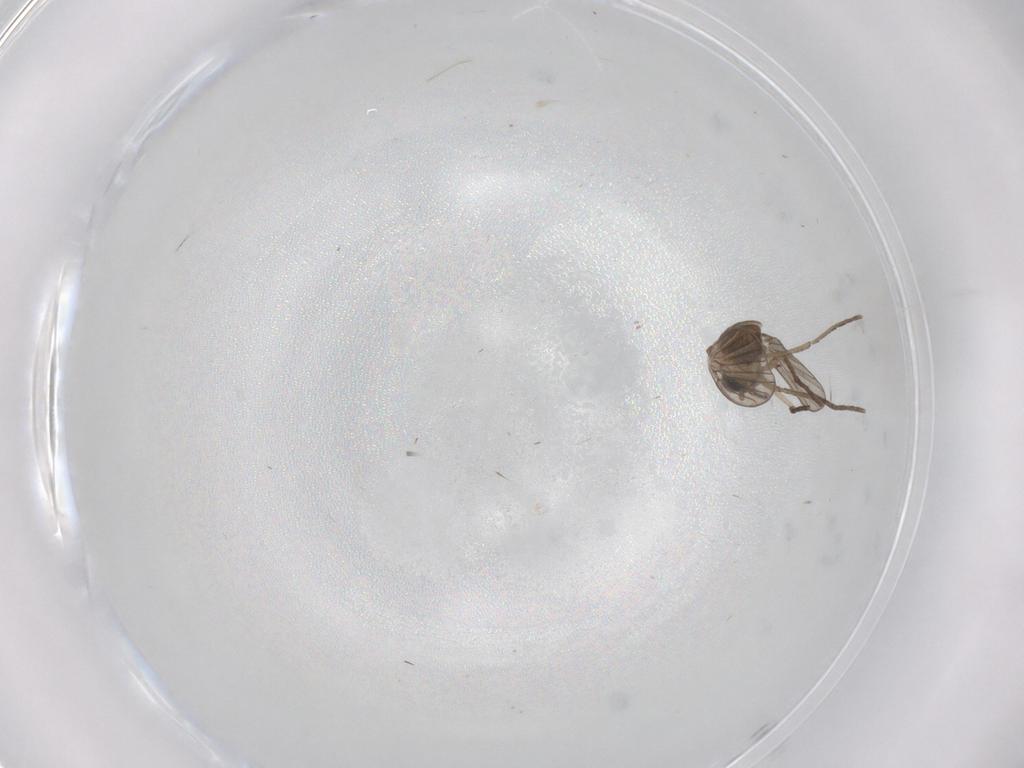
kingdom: Animalia
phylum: Arthropoda
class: Insecta
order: Diptera
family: Psychodidae
